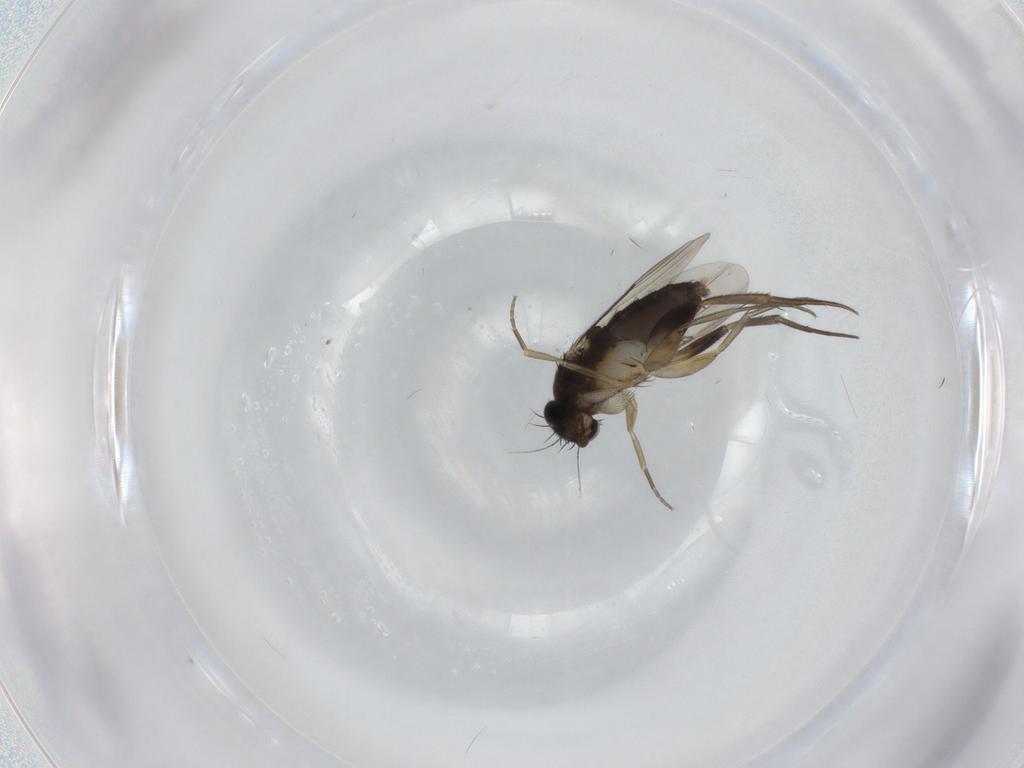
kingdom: Animalia
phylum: Arthropoda
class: Insecta
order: Diptera
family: Phoridae
